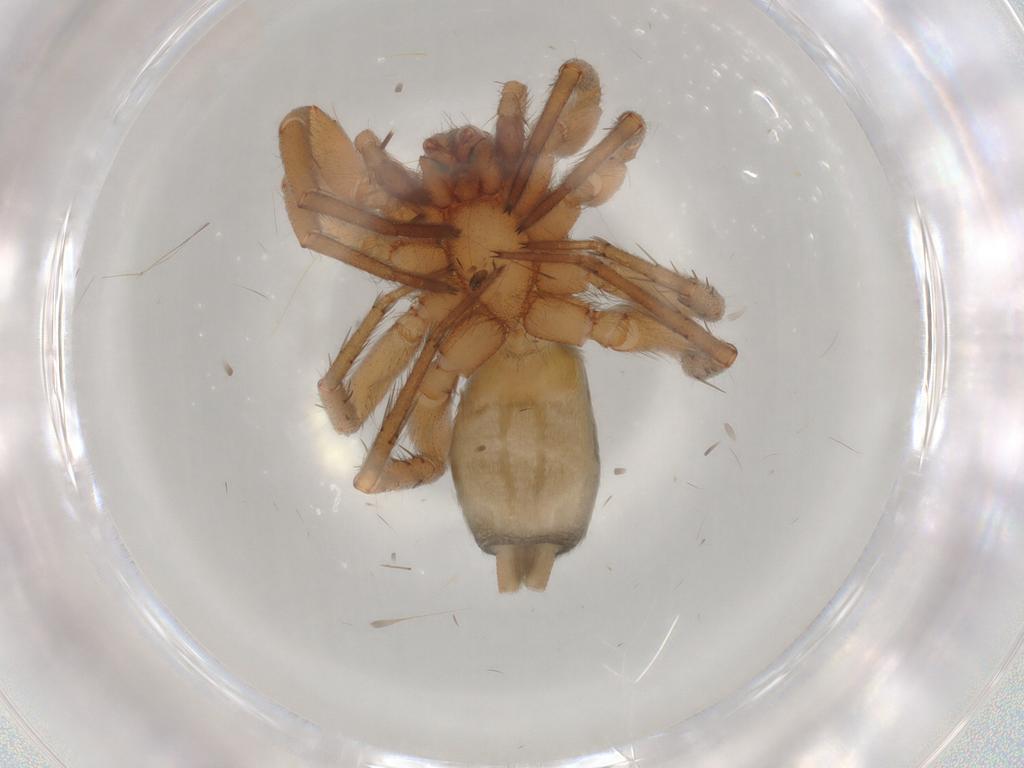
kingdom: Animalia
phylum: Arthropoda
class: Arachnida
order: Araneae
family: Gnaphosidae
